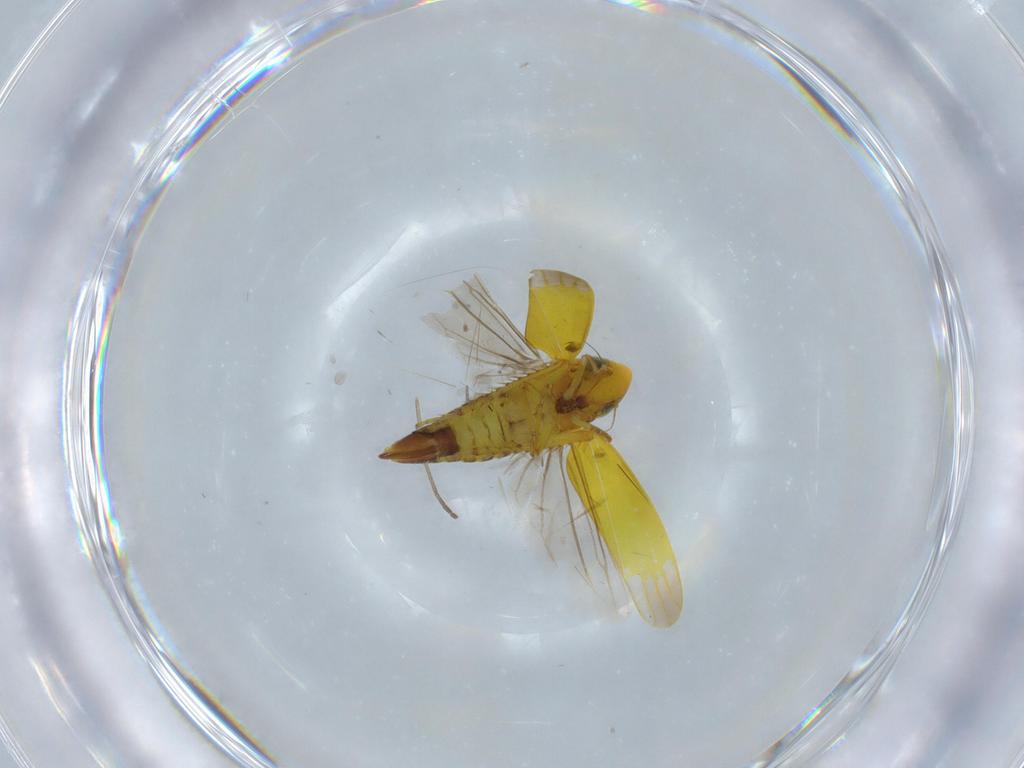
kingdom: Animalia
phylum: Arthropoda
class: Insecta
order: Hemiptera
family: Cicadellidae
